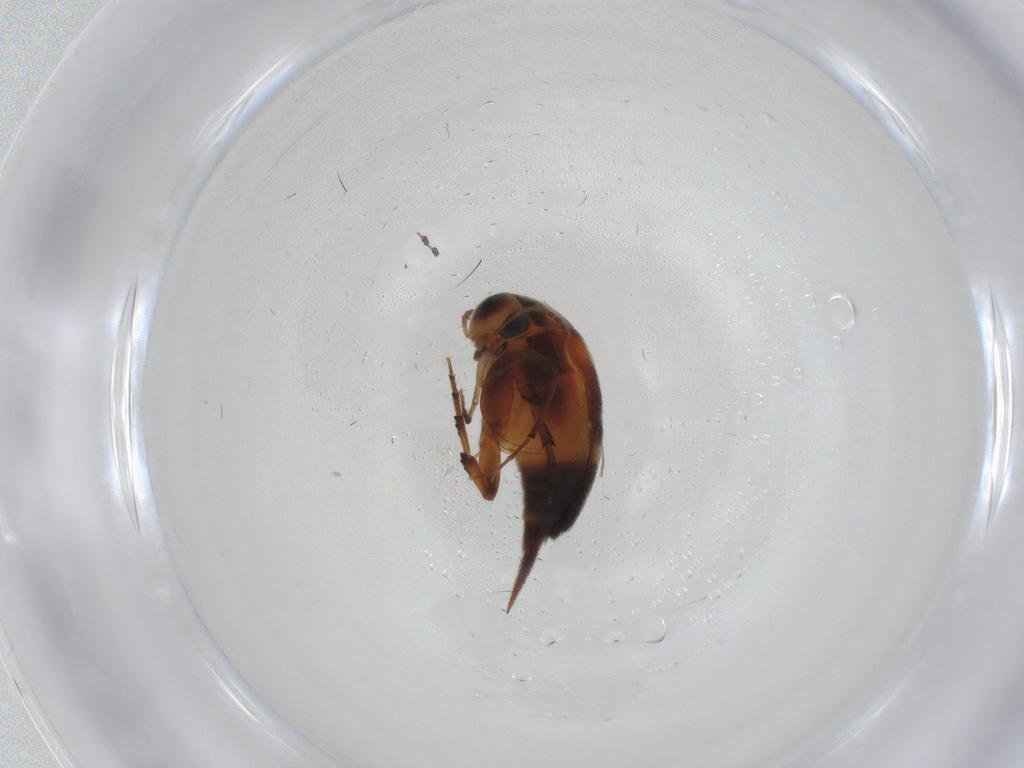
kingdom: Animalia
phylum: Arthropoda
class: Insecta
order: Coleoptera
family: Mordellidae
